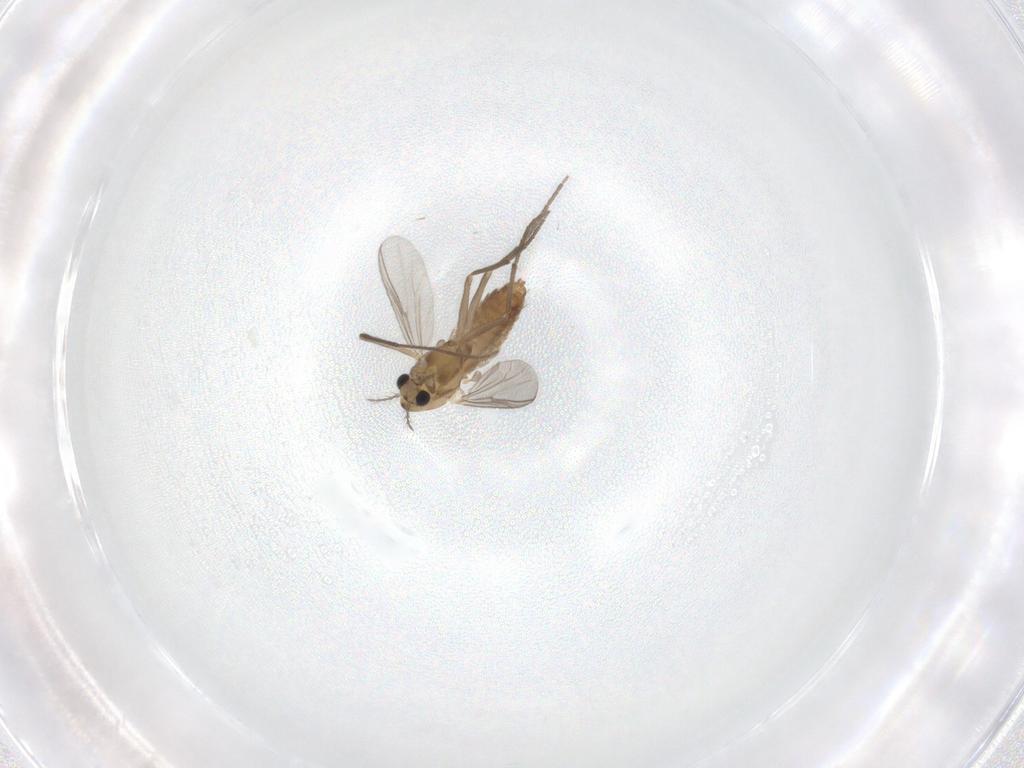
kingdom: Animalia
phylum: Arthropoda
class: Insecta
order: Diptera
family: Chironomidae
